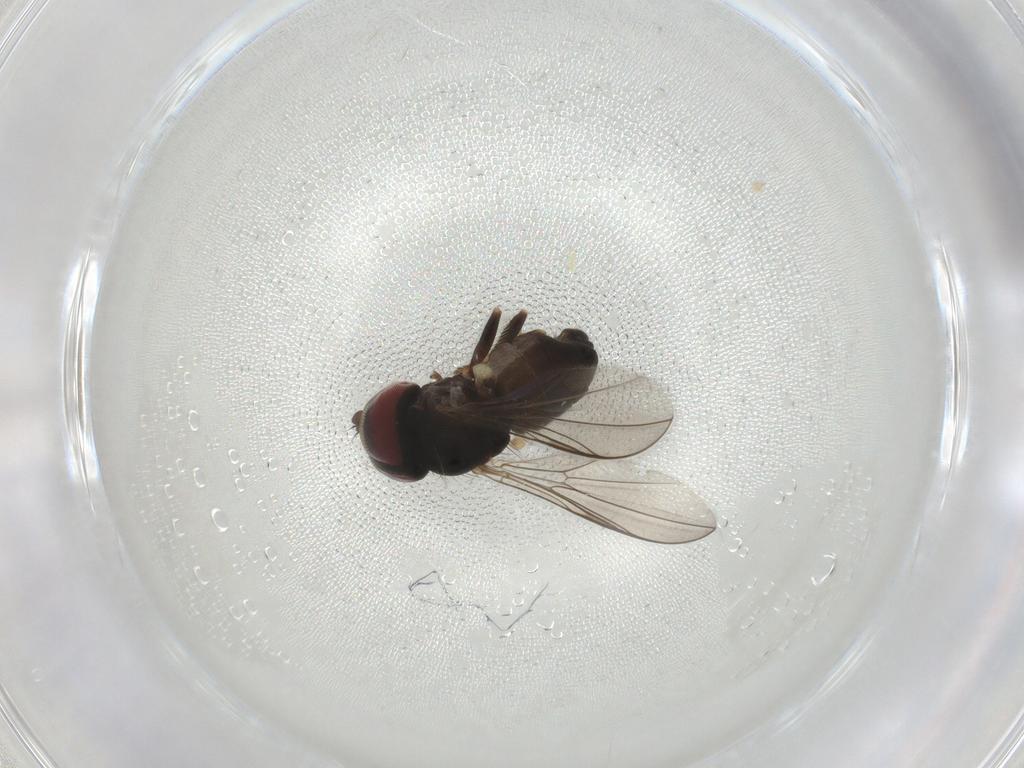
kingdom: Animalia
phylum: Arthropoda
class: Insecta
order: Diptera
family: Pipunculidae
